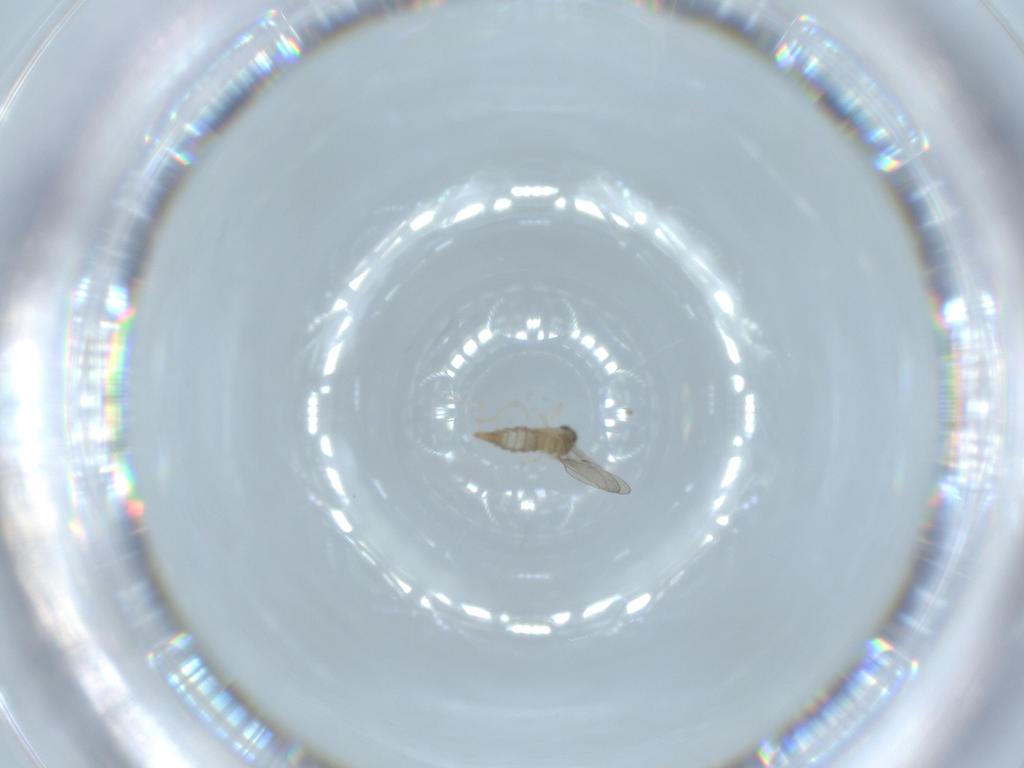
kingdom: Animalia
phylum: Arthropoda
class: Insecta
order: Diptera
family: Cecidomyiidae
